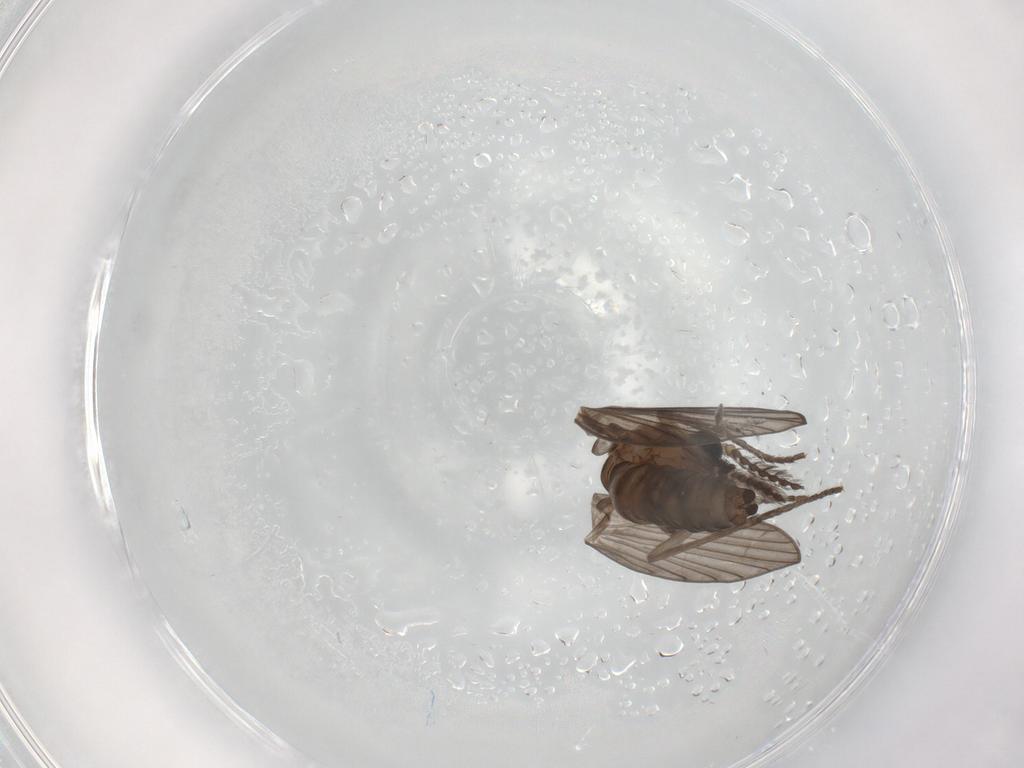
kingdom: Animalia
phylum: Arthropoda
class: Insecta
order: Diptera
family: Psychodidae
